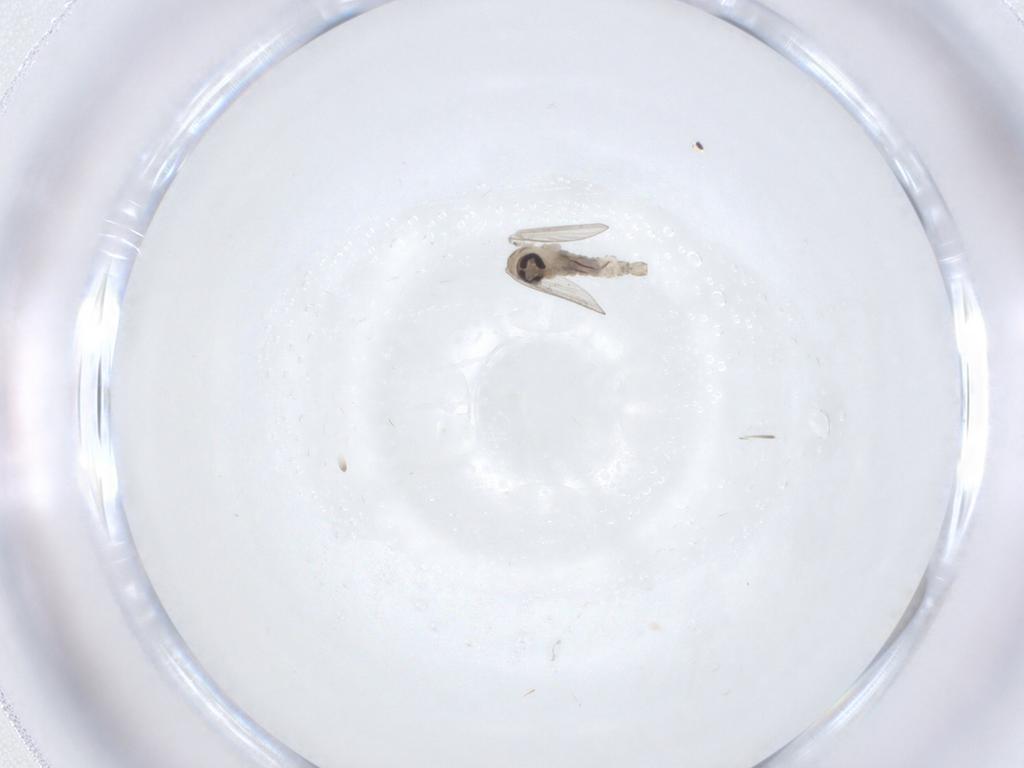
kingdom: Animalia
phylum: Arthropoda
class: Insecta
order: Diptera
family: Psychodidae
